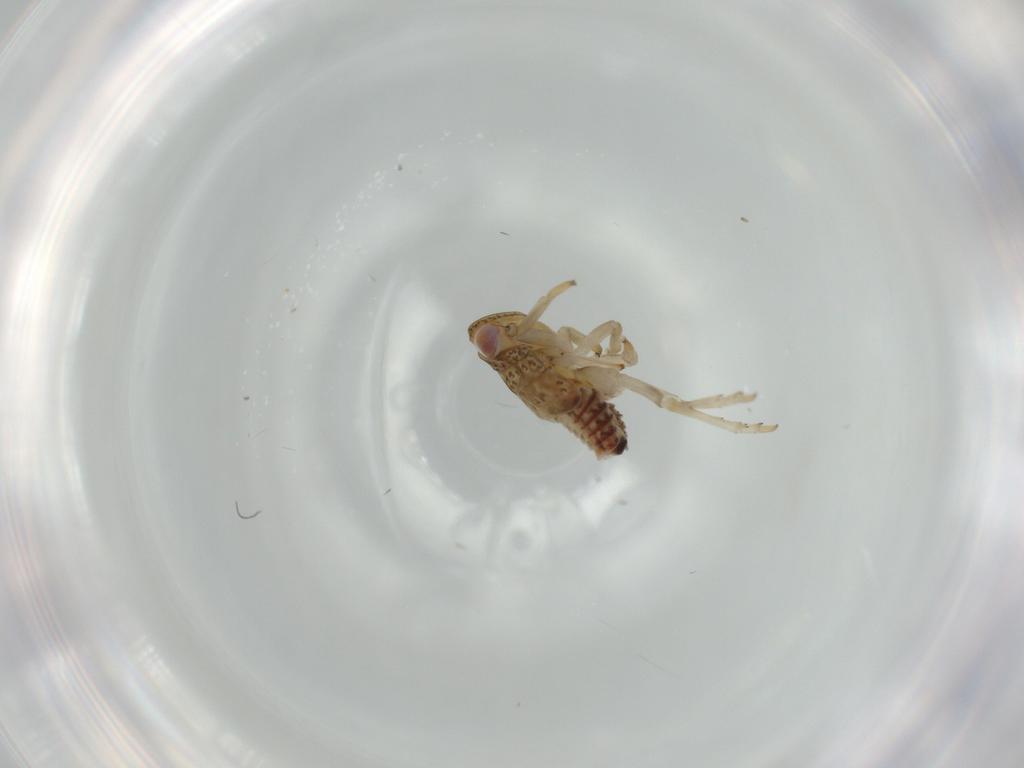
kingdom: Animalia
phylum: Arthropoda
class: Insecta
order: Hemiptera
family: Issidae
